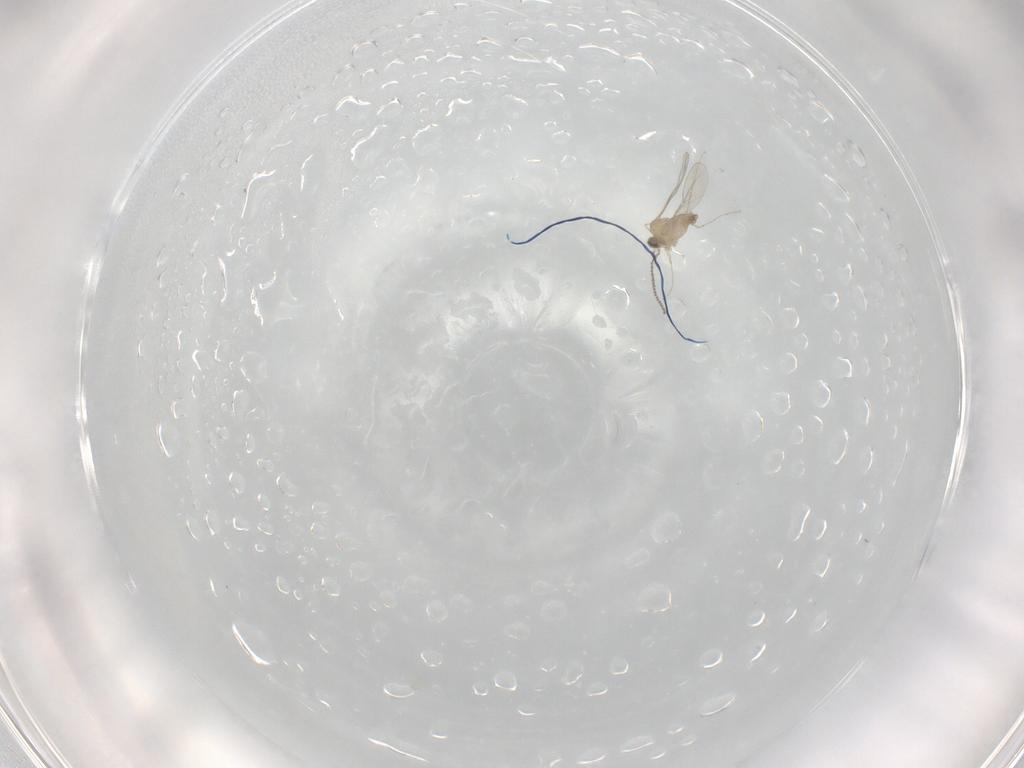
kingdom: Animalia
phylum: Arthropoda
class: Insecta
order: Diptera
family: Cecidomyiidae
